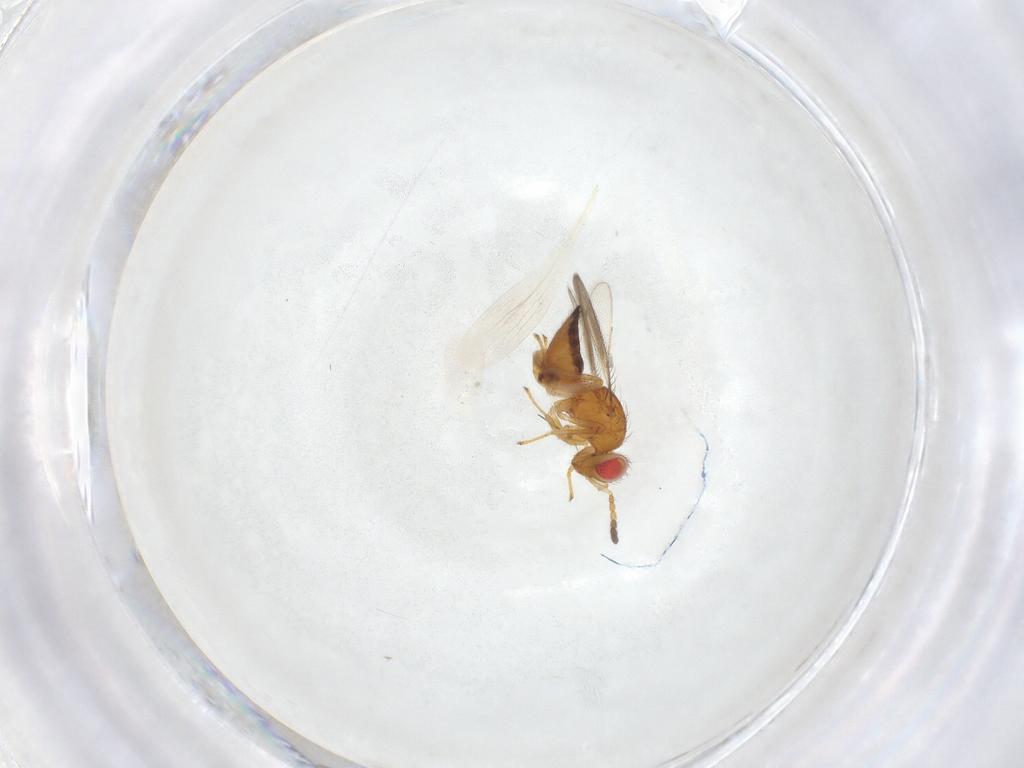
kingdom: Animalia
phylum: Arthropoda
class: Insecta
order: Hymenoptera
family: Eulophidae
